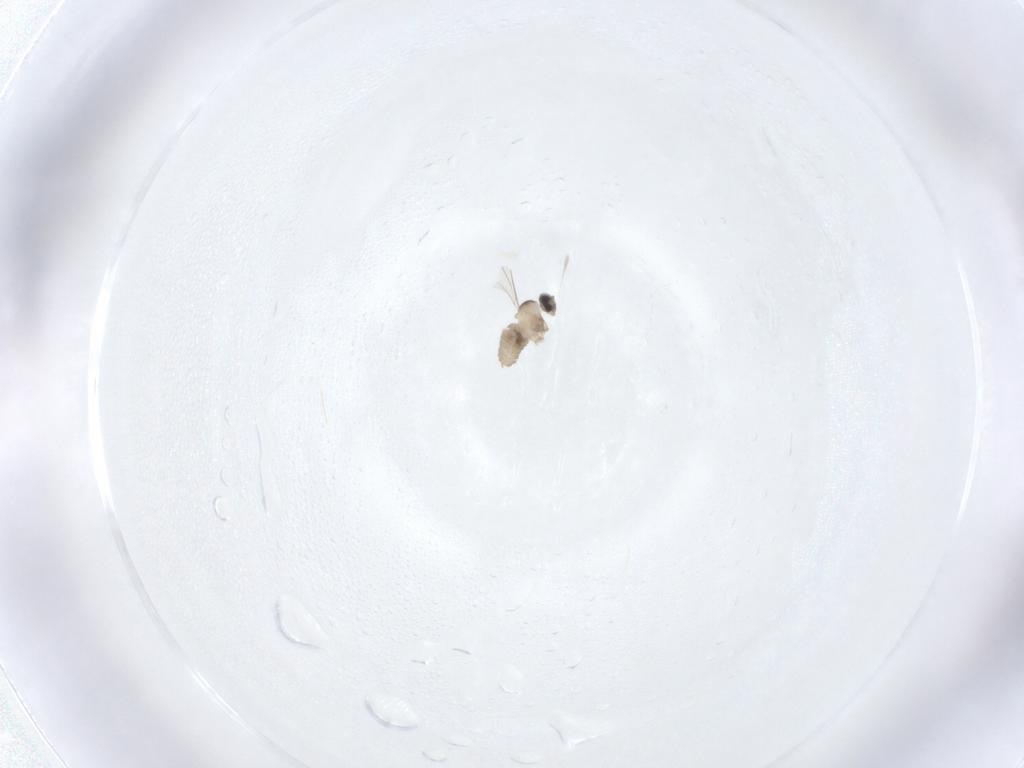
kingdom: Animalia
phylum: Arthropoda
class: Insecta
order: Diptera
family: Cecidomyiidae
